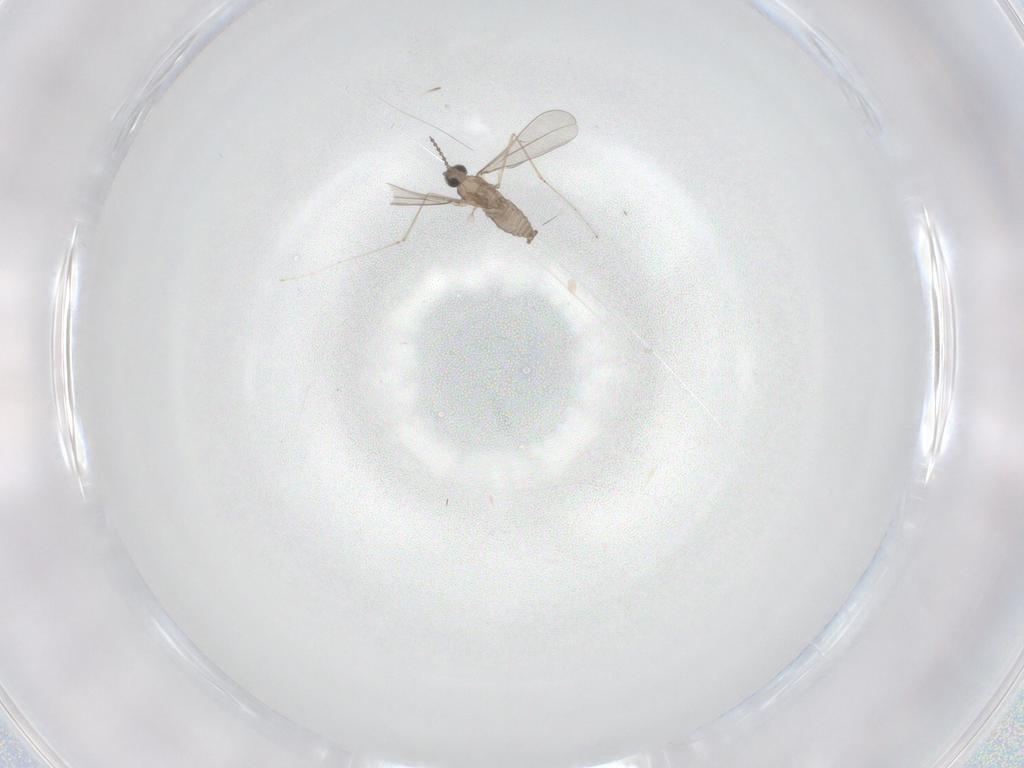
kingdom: Animalia
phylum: Arthropoda
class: Insecta
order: Diptera
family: Cecidomyiidae
